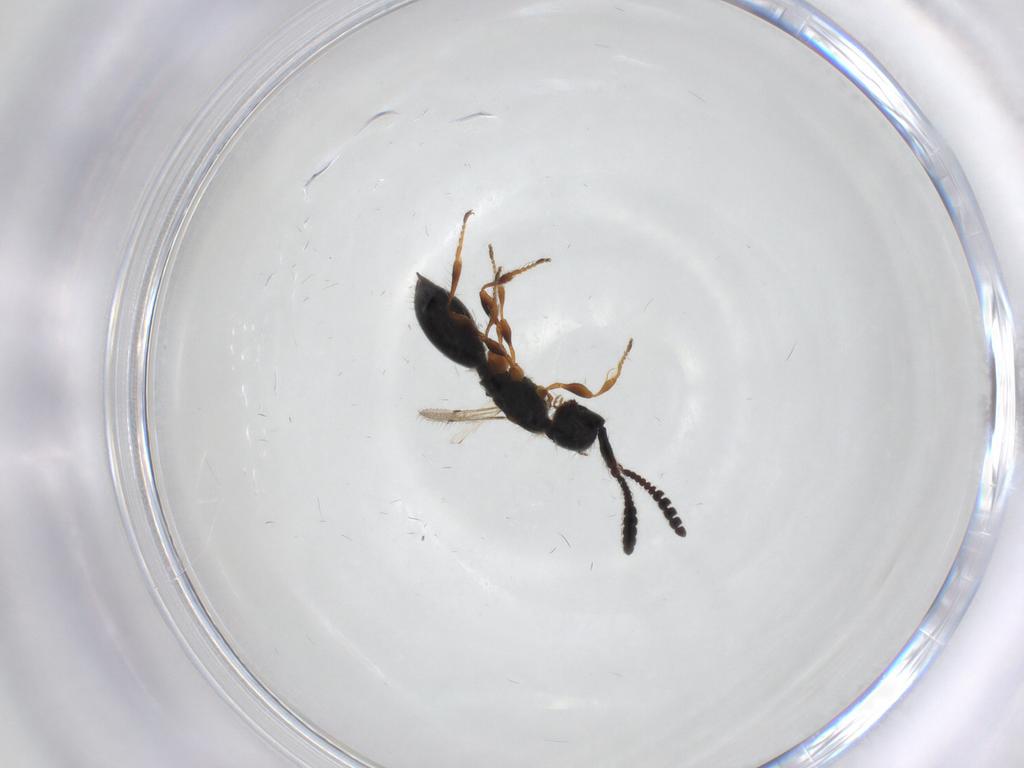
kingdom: Animalia
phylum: Arthropoda
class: Insecta
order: Hymenoptera
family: Diapriidae
